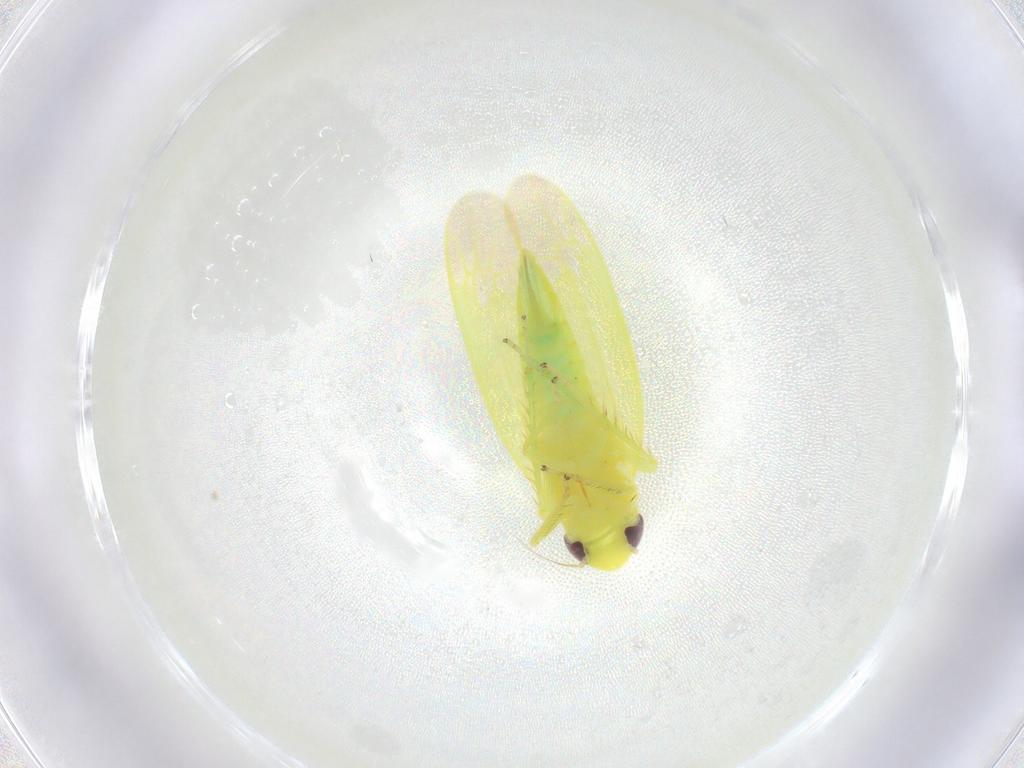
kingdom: Animalia
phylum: Arthropoda
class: Insecta
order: Hemiptera
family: Cicadellidae
